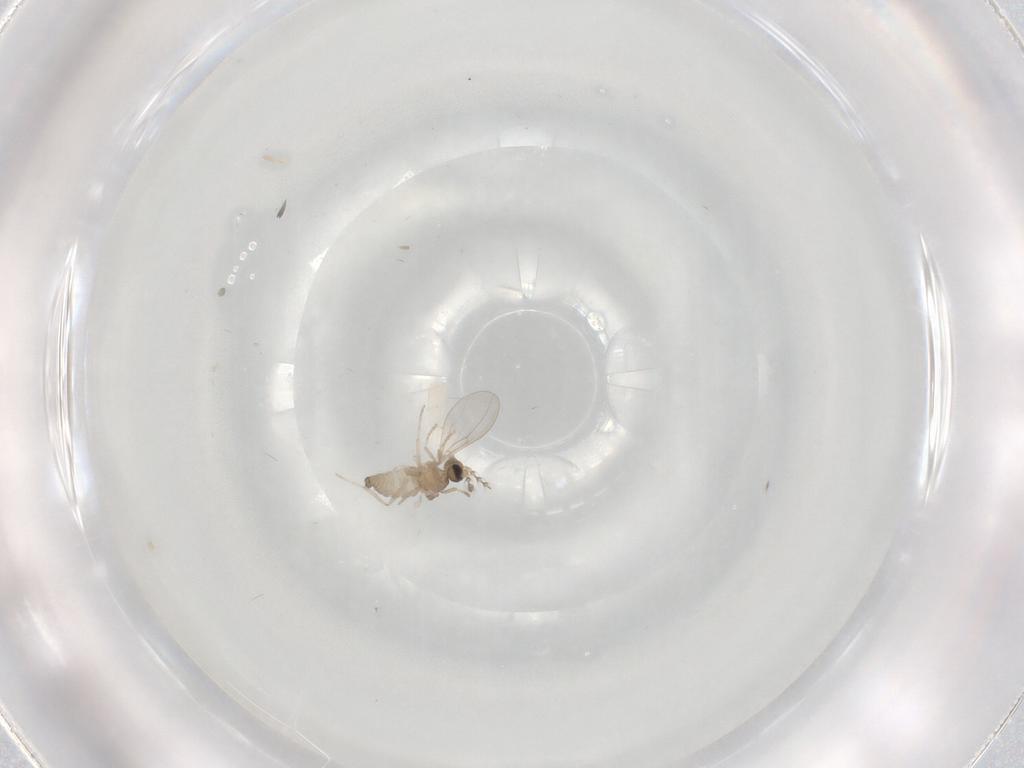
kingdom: Animalia
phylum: Arthropoda
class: Insecta
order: Diptera
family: Cecidomyiidae
